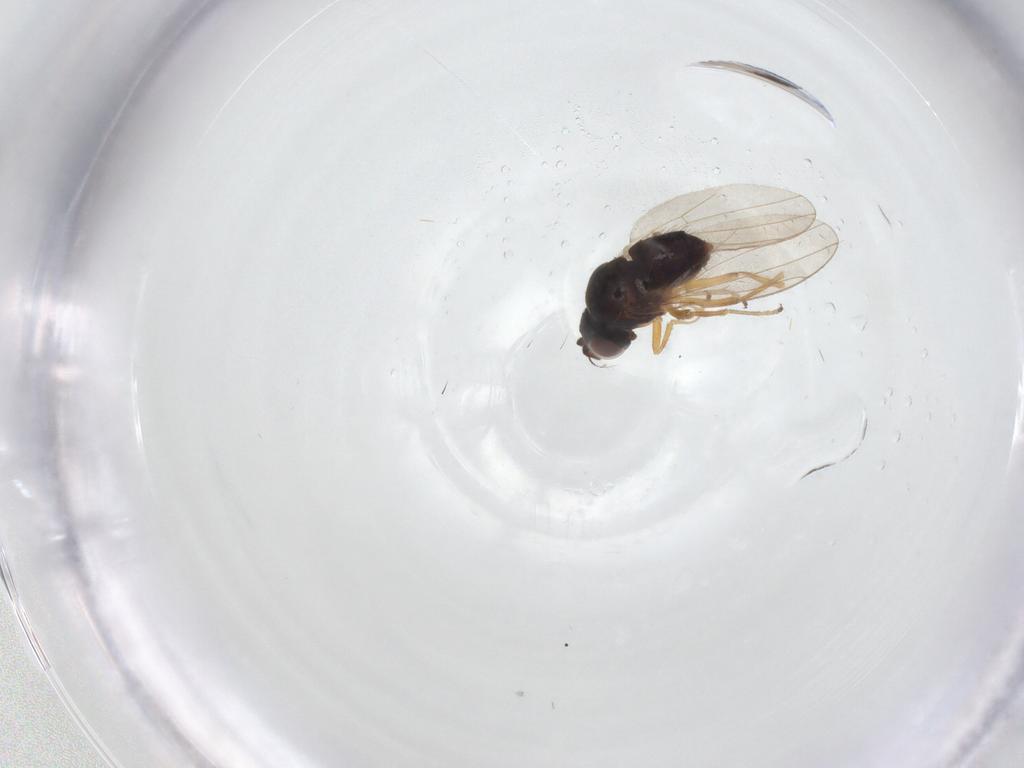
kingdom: Animalia
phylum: Arthropoda
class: Insecta
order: Diptera
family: Ephydridae
